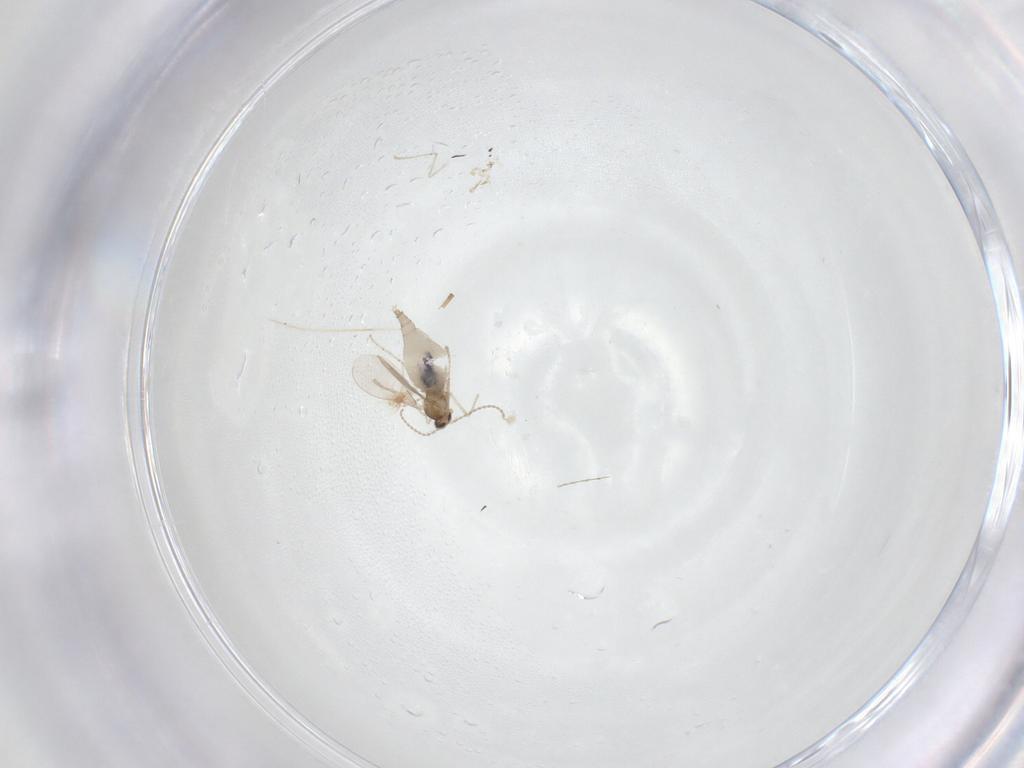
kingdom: Animalia
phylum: Arthropoda
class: Insecta
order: Diptera
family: Cecidomyiidae
